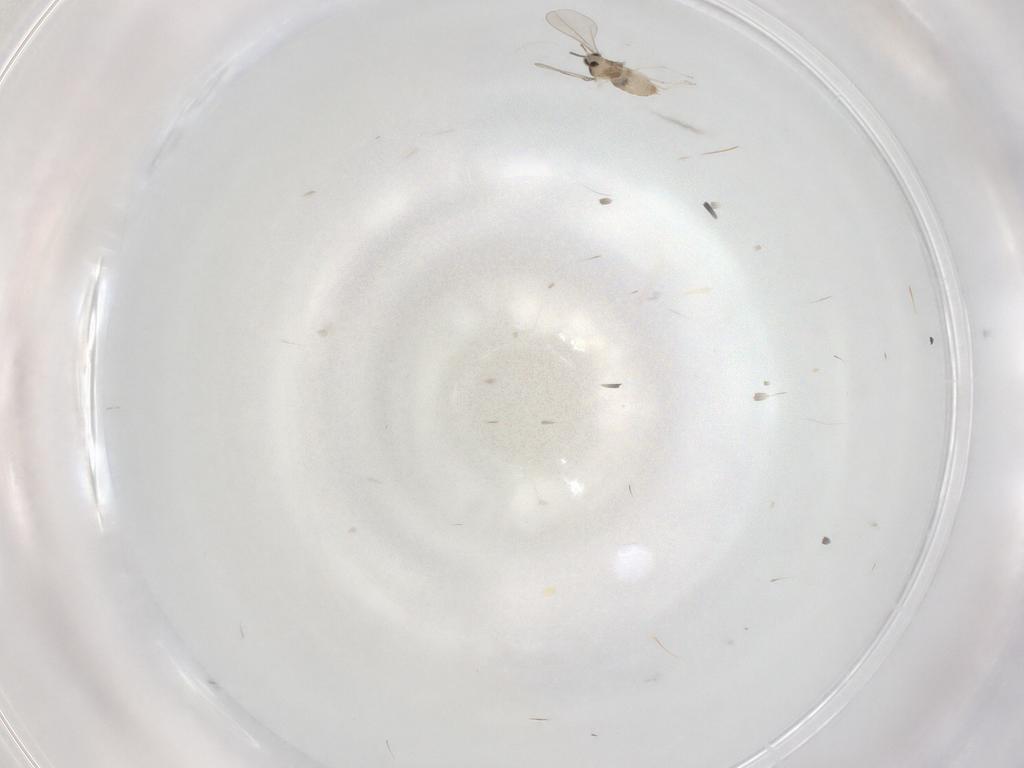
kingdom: Animalia
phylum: Arthropoda
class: Insecta
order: Diptera
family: Cecidomyiidae
